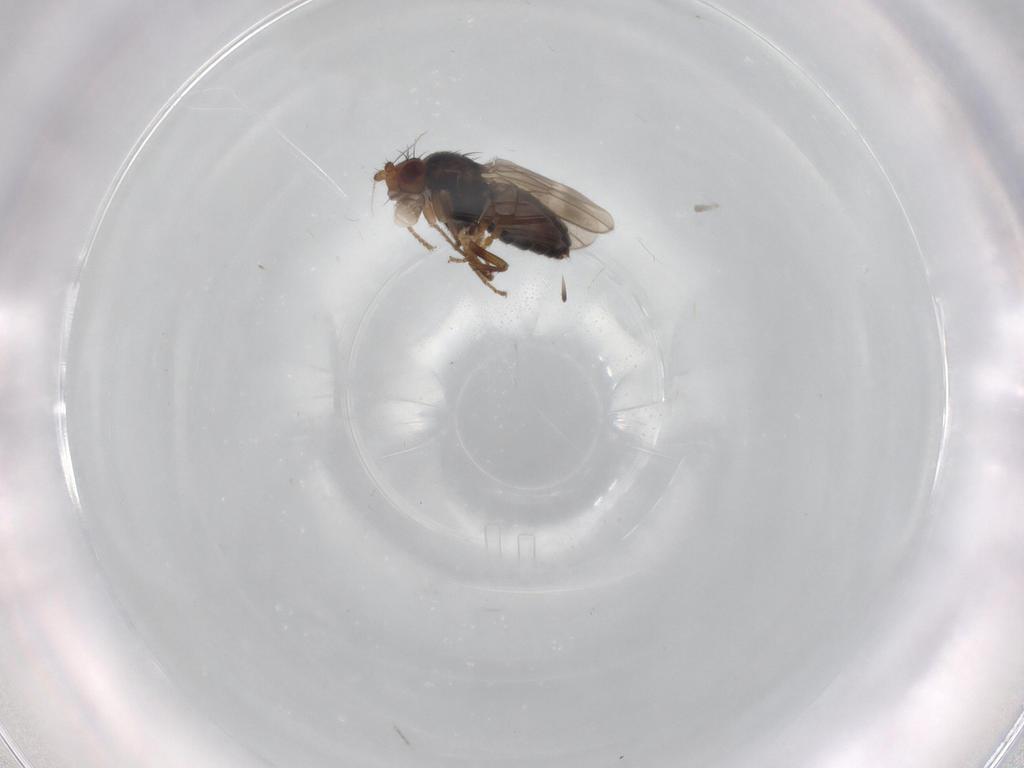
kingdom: Animalia
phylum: Arthropoda
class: Insecta
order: Diptera
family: Sphaeroceridae
